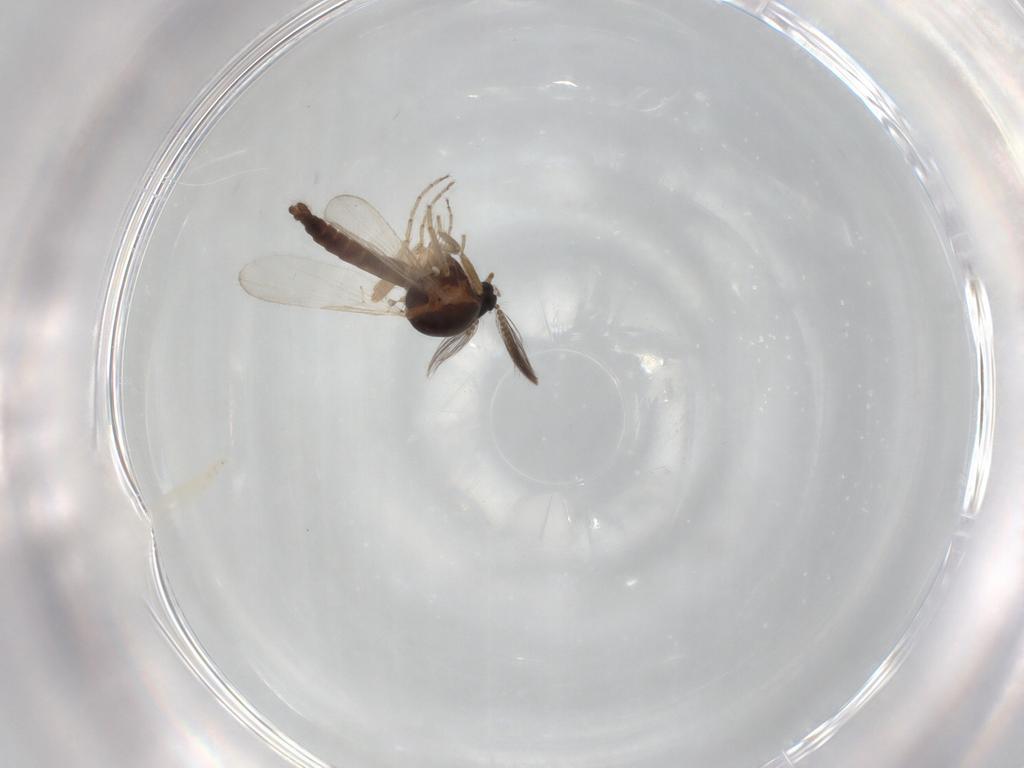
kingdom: Animalia
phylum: Arthropoda
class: Insecta
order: Diptera
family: Ceratopogonidae
